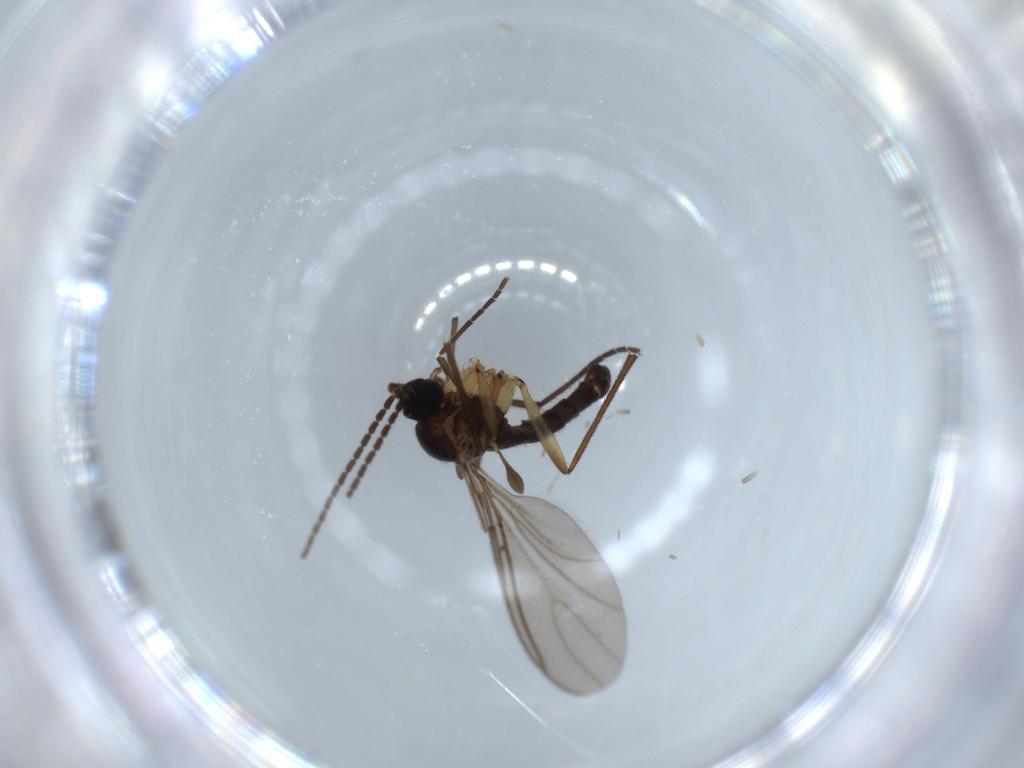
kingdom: Animalia
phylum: Arthropoda
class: Insecta
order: Diptera
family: Sciaridae
